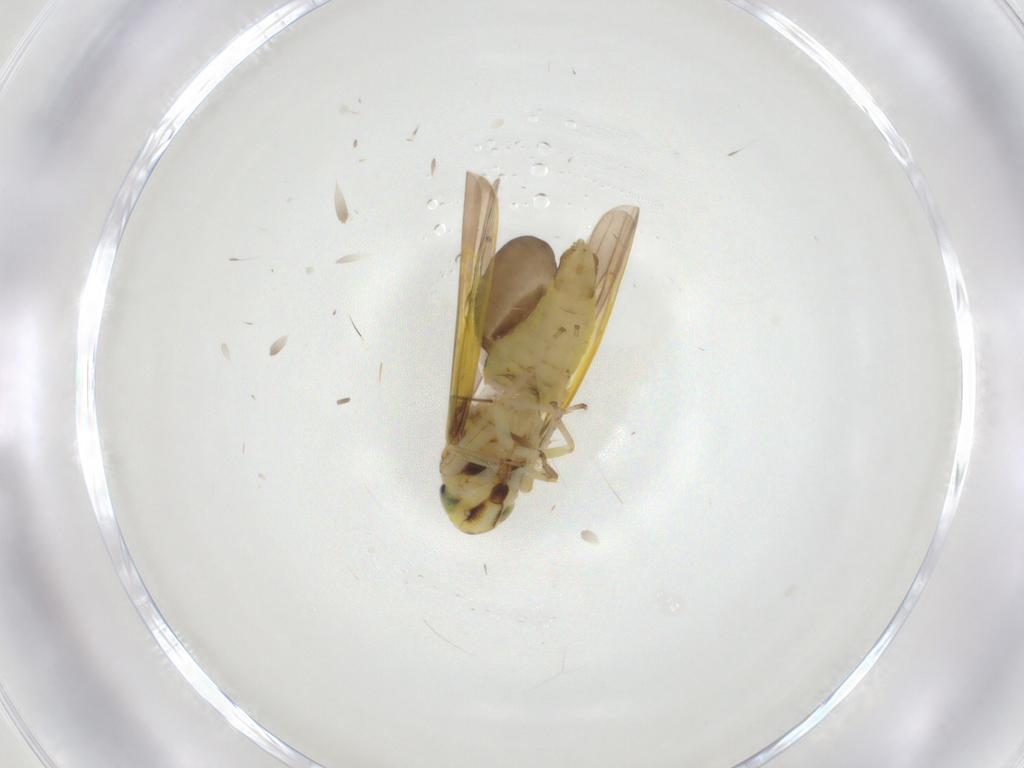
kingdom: Animalia
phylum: Arthropoda
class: Insecta
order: Hemiptera
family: Cicadellidae
